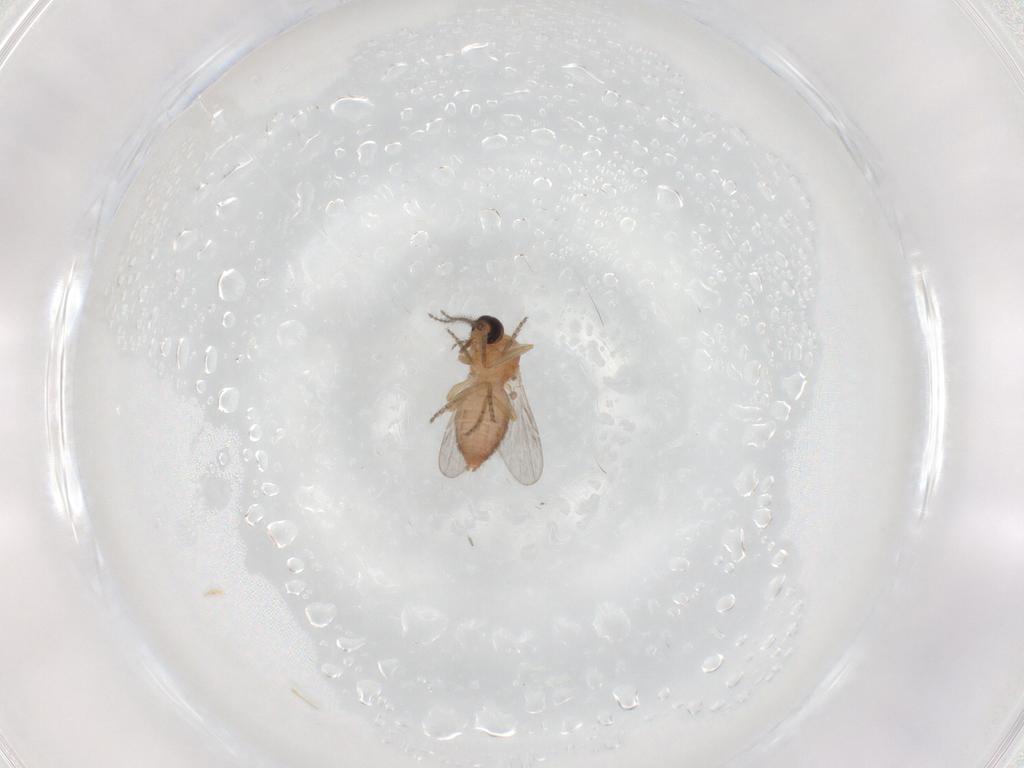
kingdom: Animalia
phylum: Arthropoda
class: Insecta
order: Diptera
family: Ceratopogonidae
